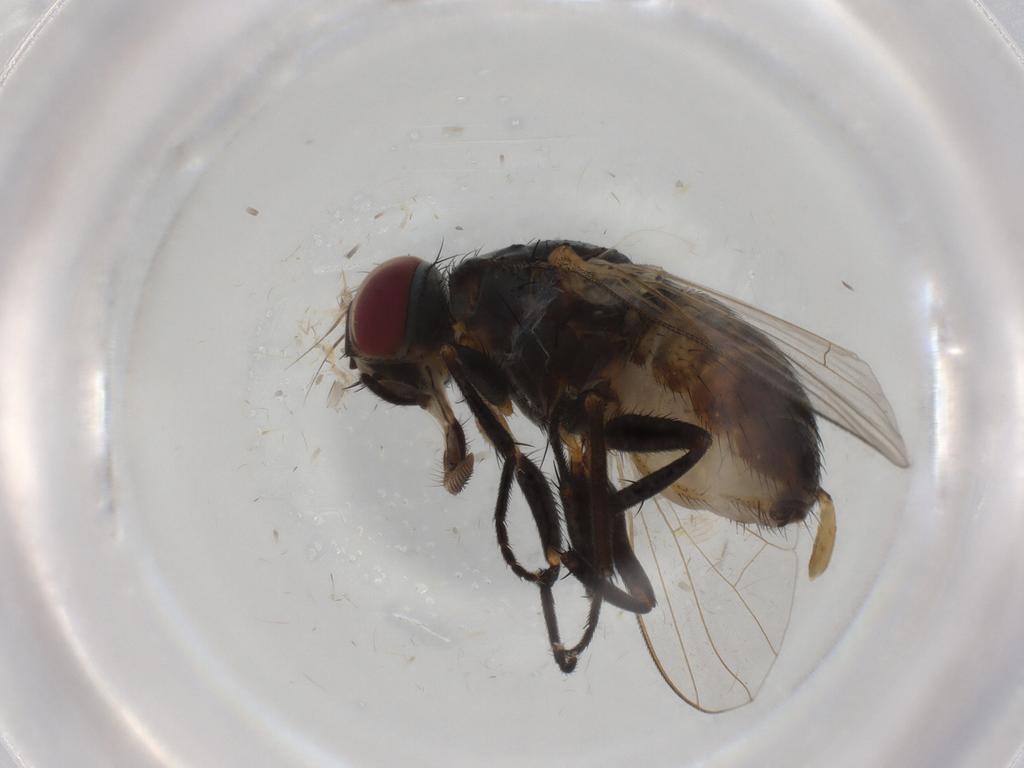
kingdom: Animalia
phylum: Arthropoda
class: Insecta
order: Diptera
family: Muscidae
